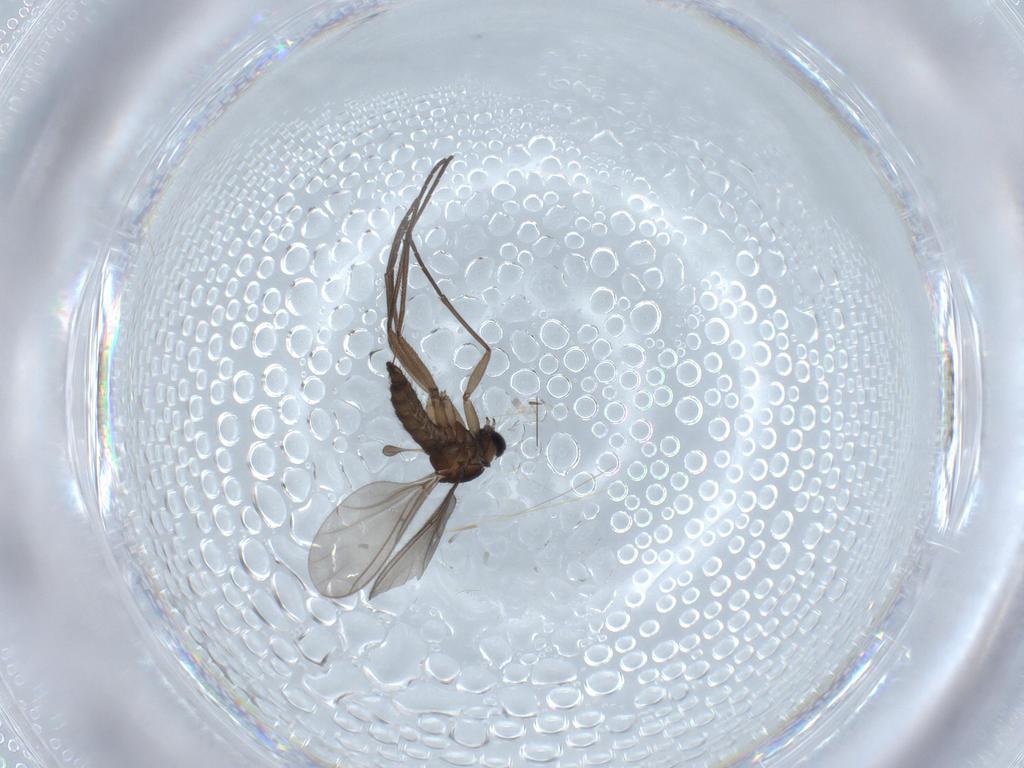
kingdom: Animalia
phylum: Arthropoda
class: Insecta
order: Diptera
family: Sciaridae
